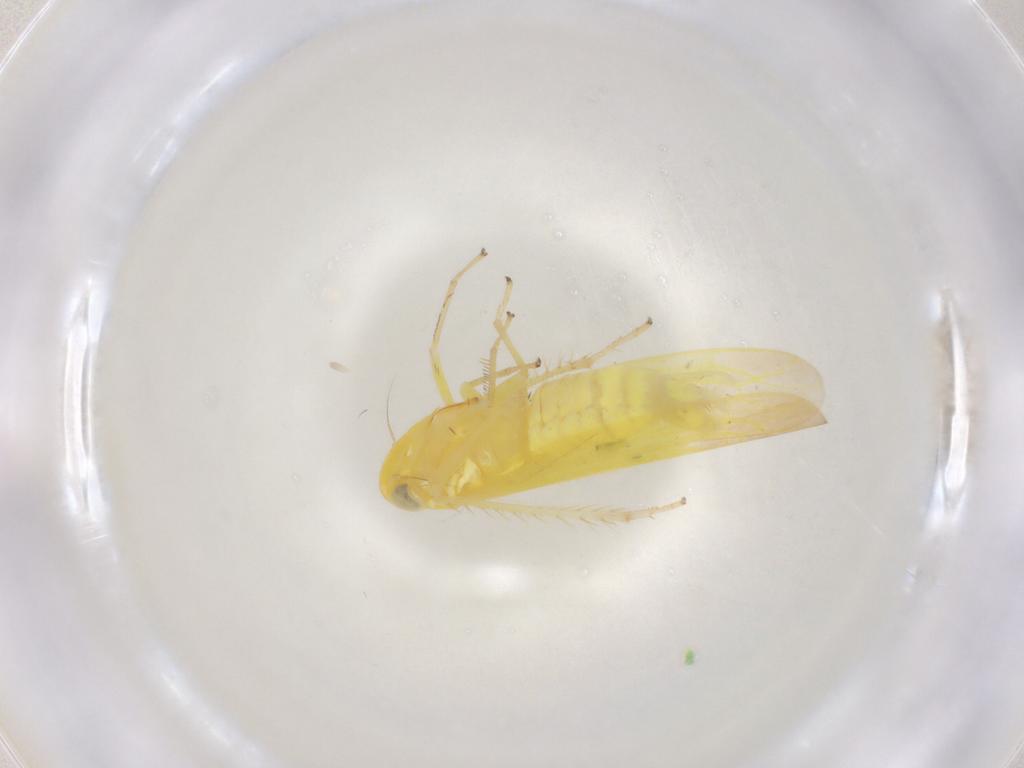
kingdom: Animalia
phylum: Arthropoda
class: Insecta
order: Hemiptera
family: Cicadellidae
